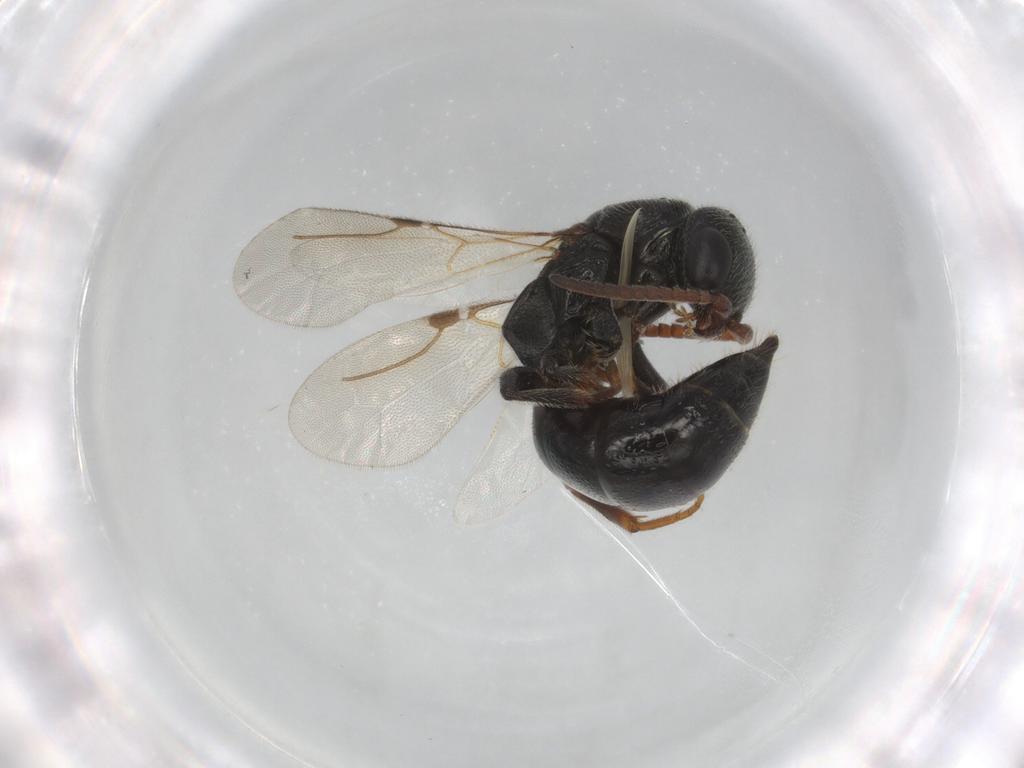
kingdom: Animalia
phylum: Arthropoda
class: Insecta
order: Hymenoptera
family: Bethylidae
